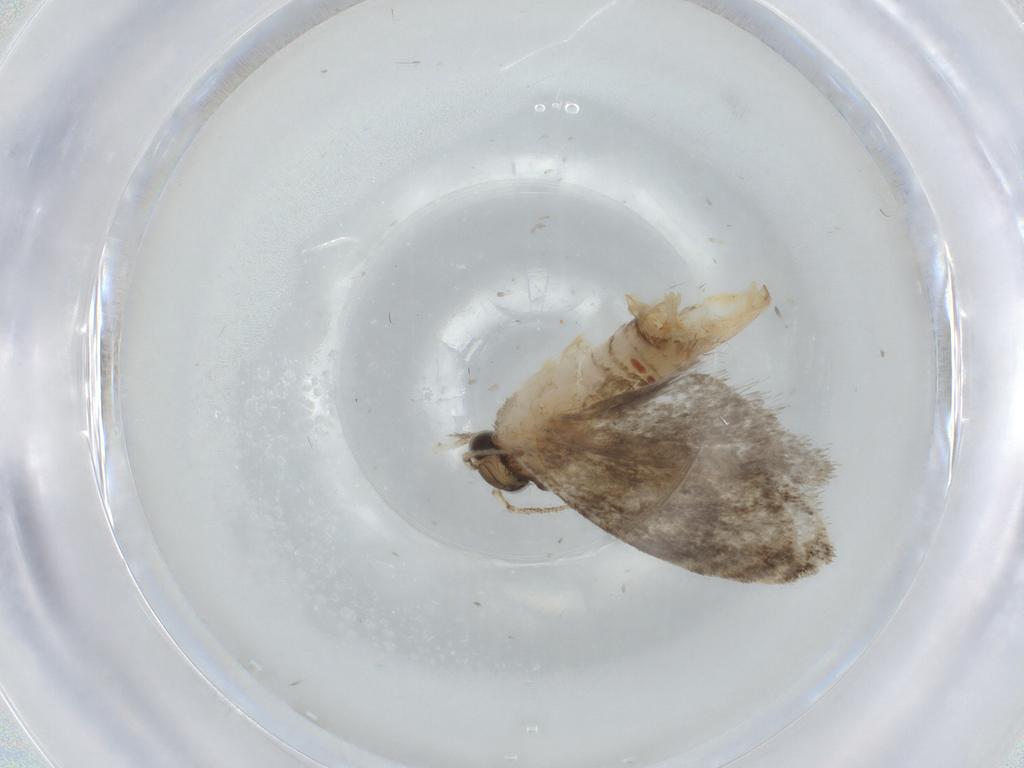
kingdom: Animalia
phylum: Arthropoda
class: Insecta
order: Lepidoptera
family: Tineidae
